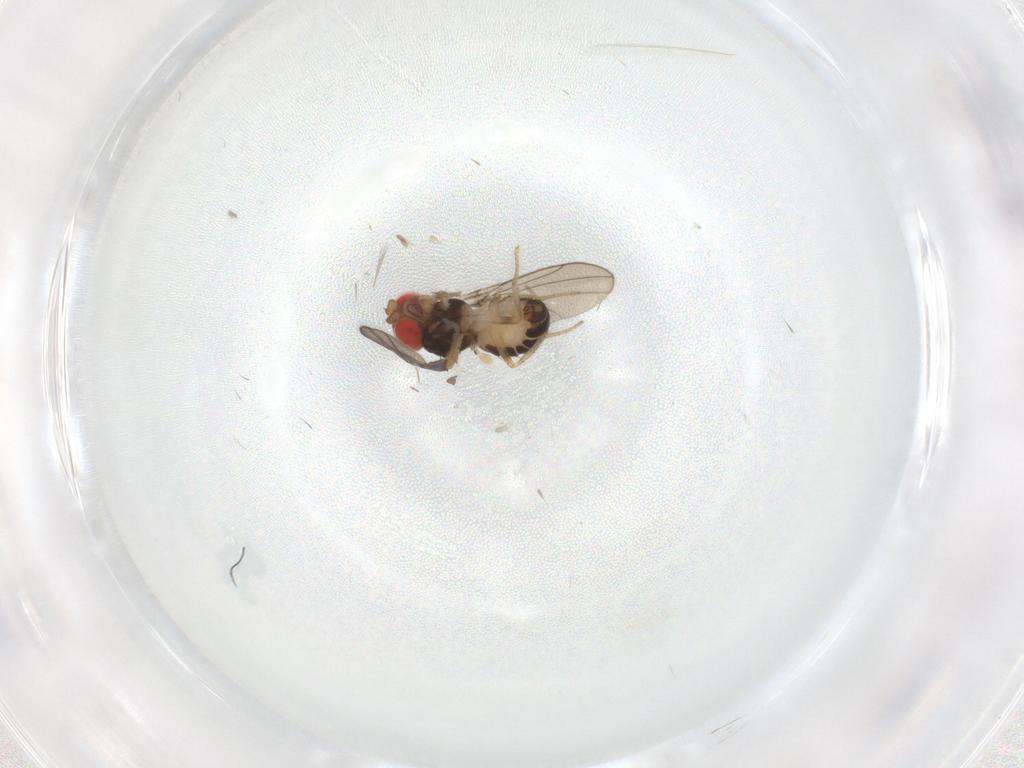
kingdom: Animalia
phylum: Arthropoda
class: Insecta
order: Diptera
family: Drosophilidae
